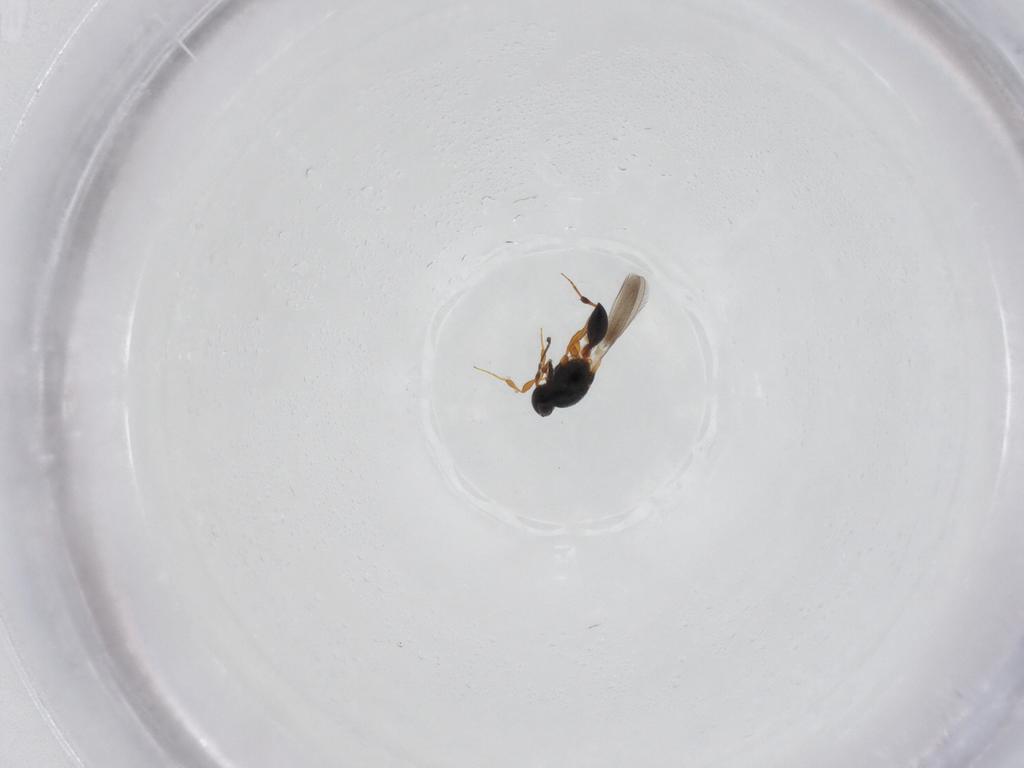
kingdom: Animalia
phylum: Arthropoda
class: Insecta
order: Hymenoptera
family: Platygastridae
